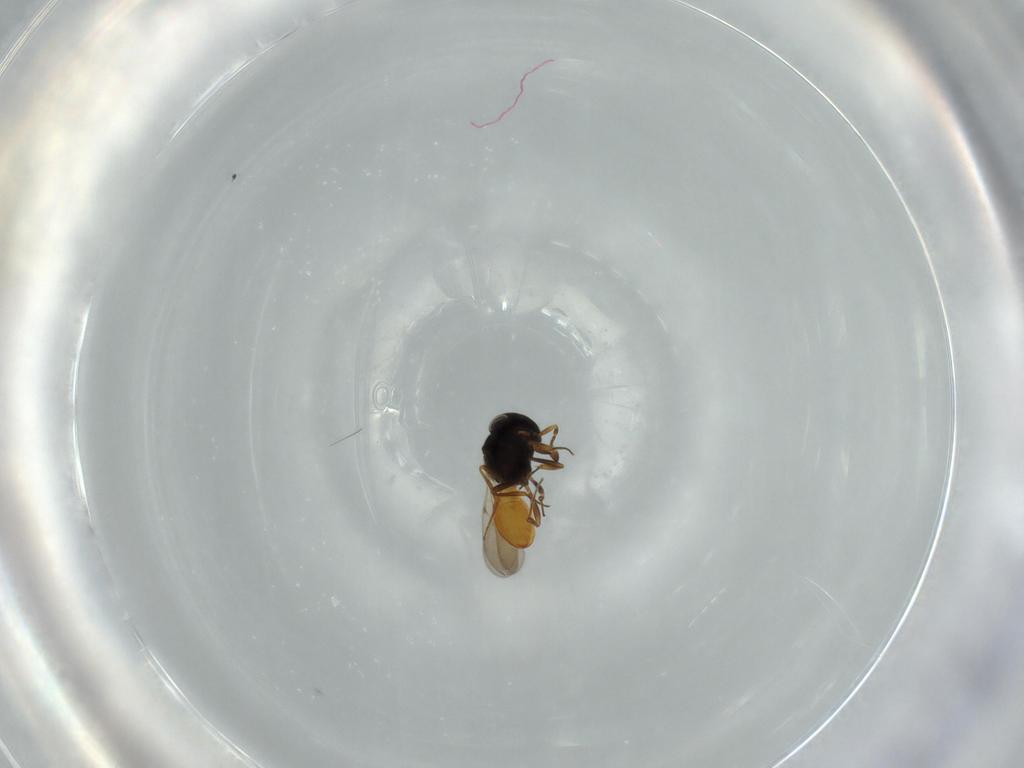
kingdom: Animalia
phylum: Arthropoda
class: Insecta
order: Hymenoptera
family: Scelionidae
